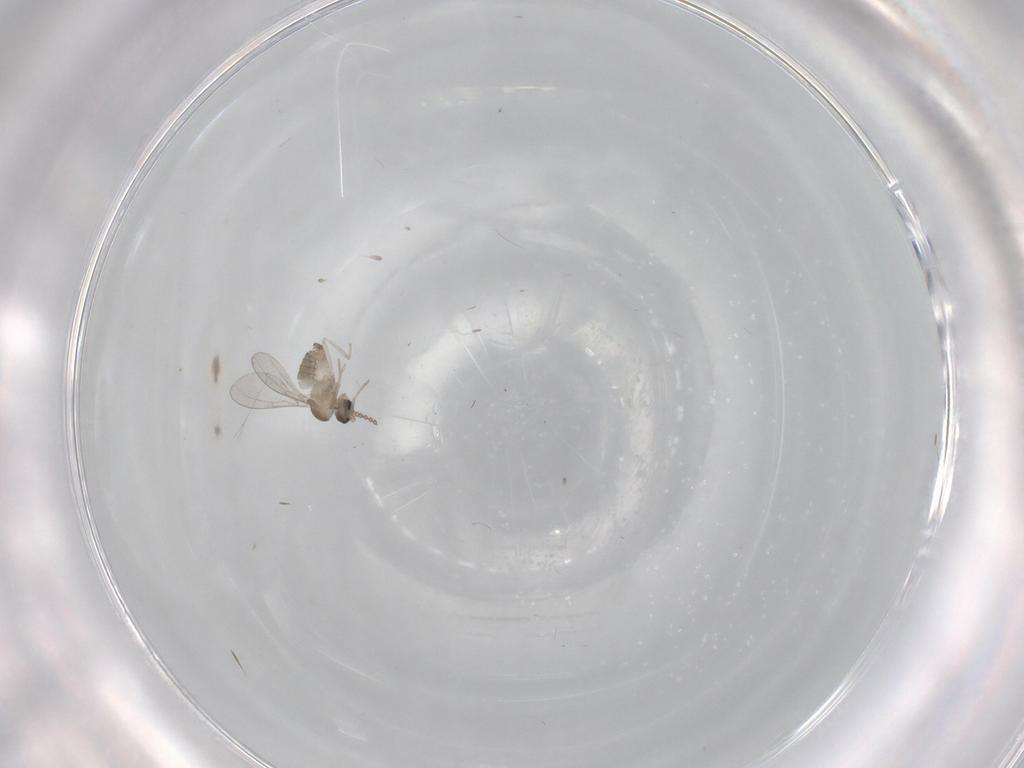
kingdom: Animalia
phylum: Arthropoda
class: Insecta
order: Diptera
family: Cecidomyiidae
